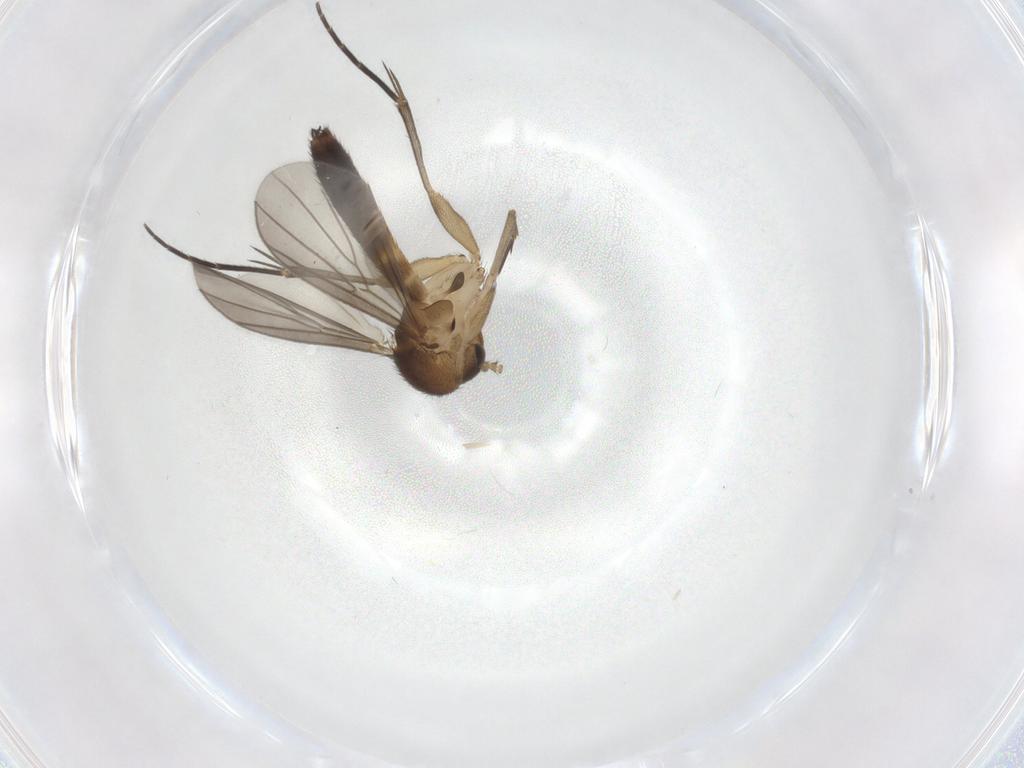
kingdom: Animalia
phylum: Arthropoda
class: Insecta
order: Diptera
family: Mycetophilidae
